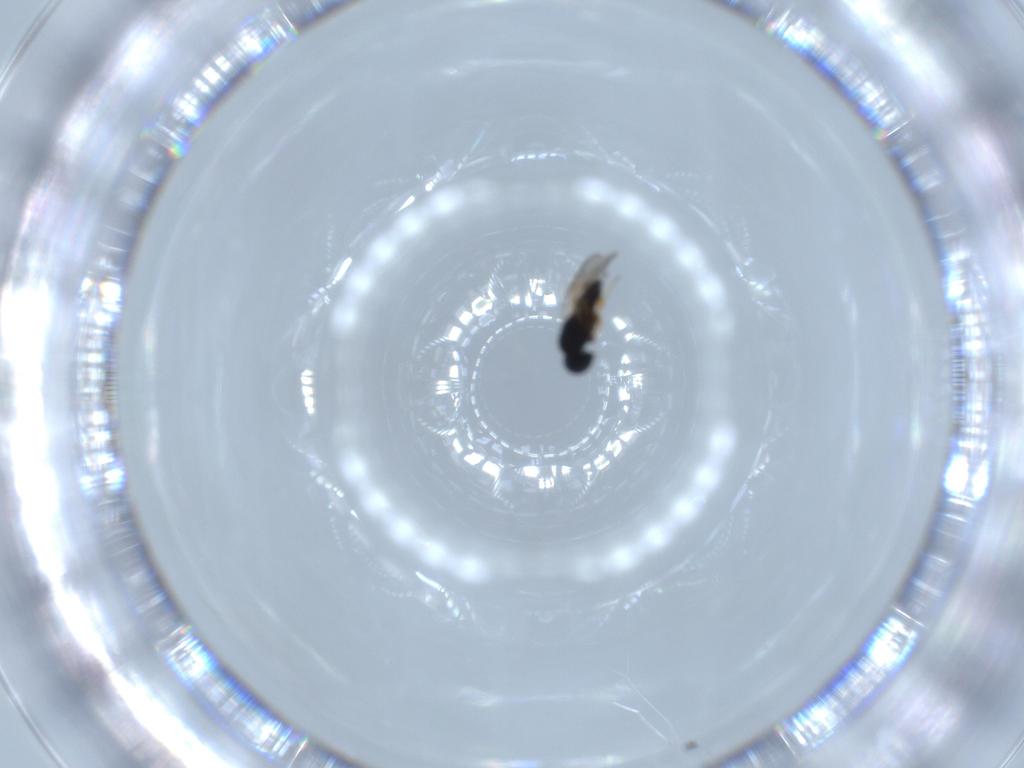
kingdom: Animalia
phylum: Arthropoda
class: Insecta
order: Hymenoptera
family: Scelionidae
